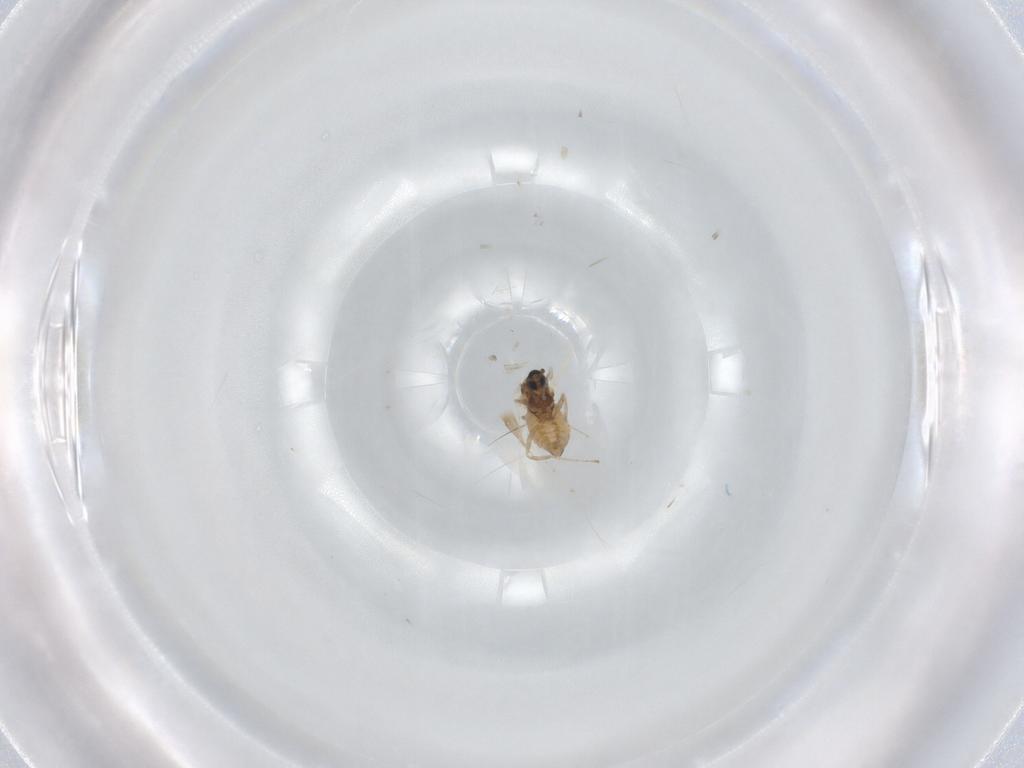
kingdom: Animalia
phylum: Arthropoda
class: Insecta
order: Diptera
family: Cecidomyiidae
